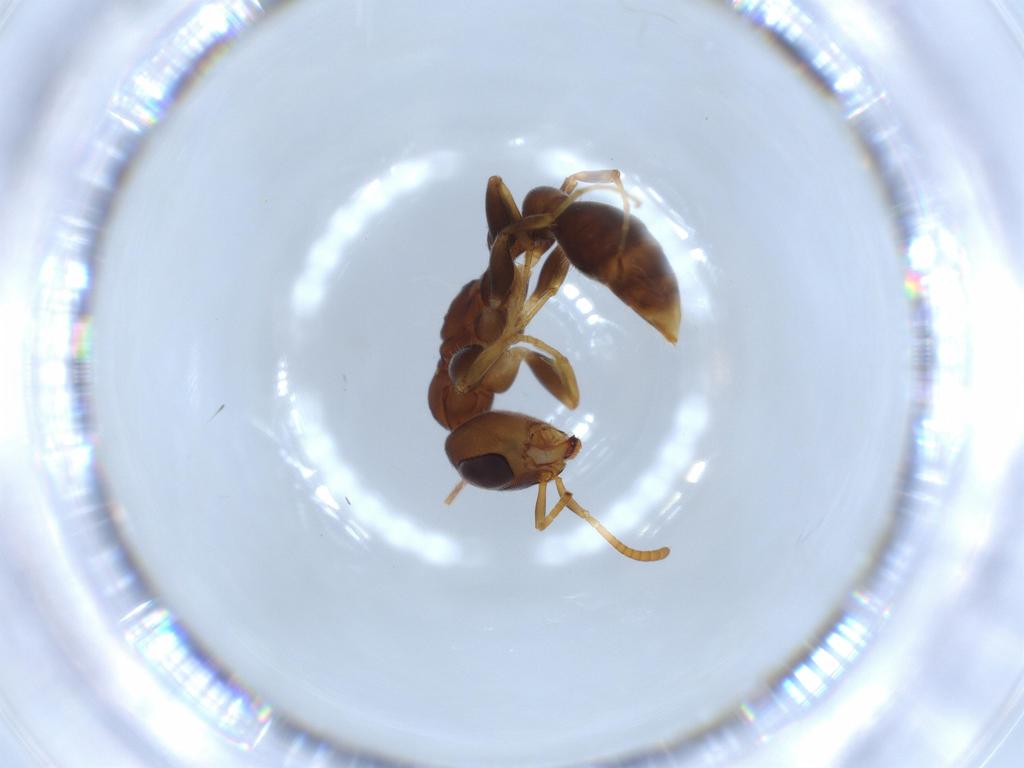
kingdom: Animalia
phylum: Arthropoda
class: Insecta
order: Hymenoptera
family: Formicidae
